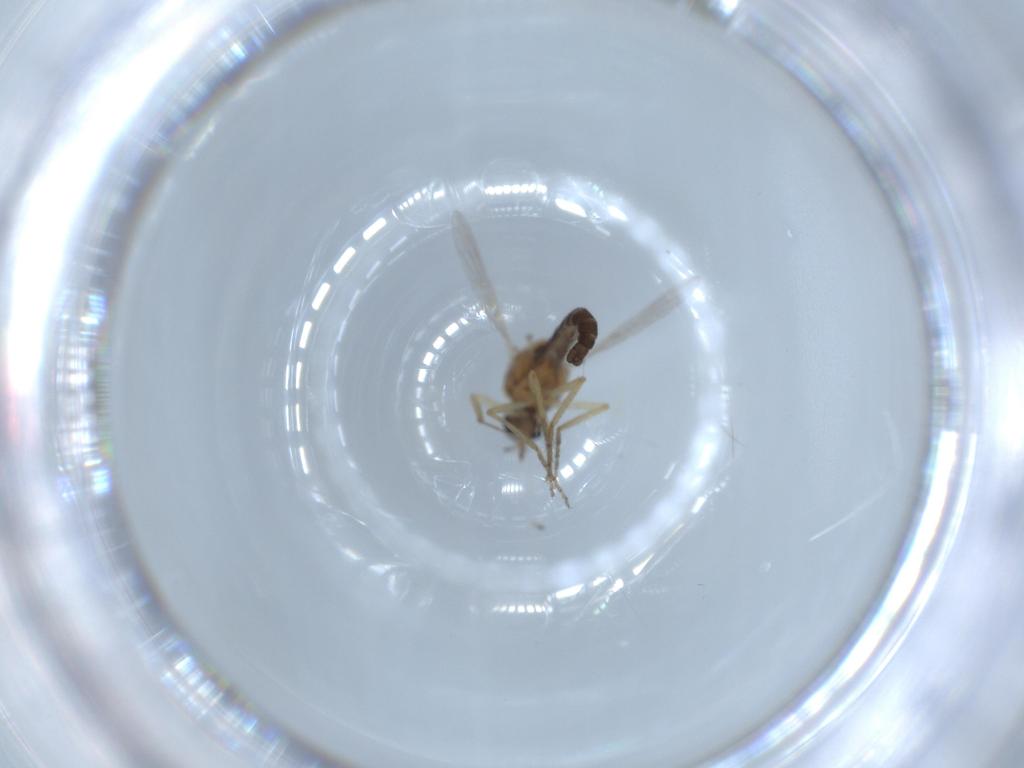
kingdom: Animalia
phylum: Arthropoda
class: Insecta
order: Diptera
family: Ceratopogonidae
